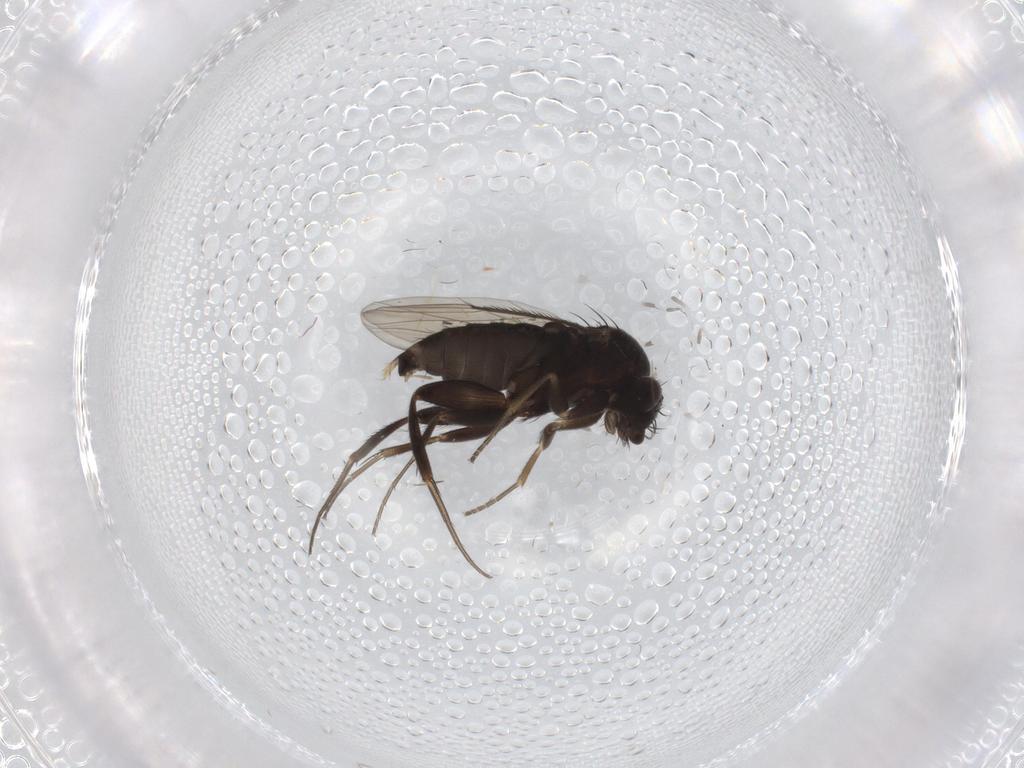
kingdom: Animalia
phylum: Arthropoda
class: Insecta
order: Diptera
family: Phoridae
